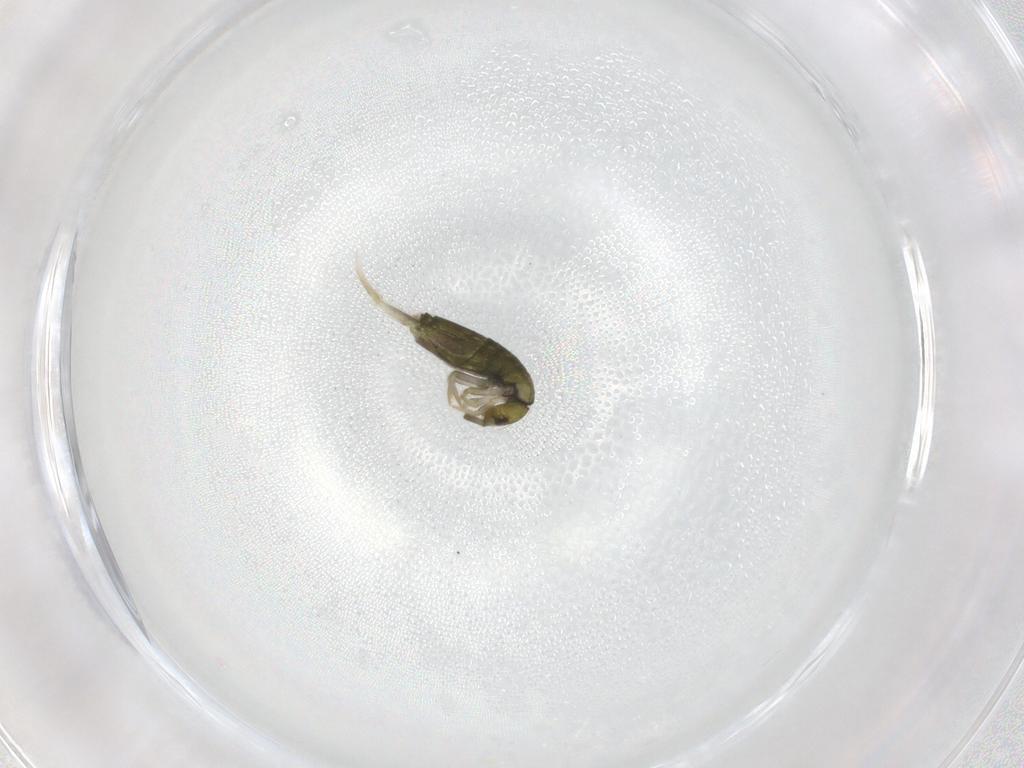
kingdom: Animalia
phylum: Arthropoda
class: Collembola
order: Entomobryomorpha
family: Entomobryidae
